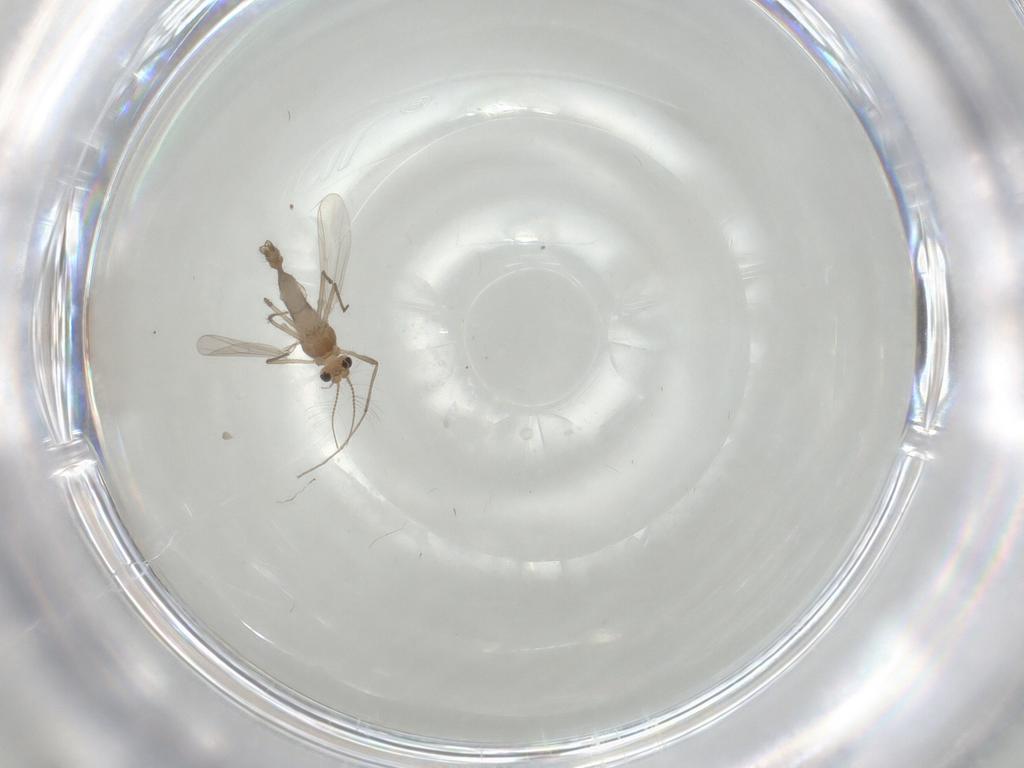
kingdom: Animalia
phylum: Arthropoda
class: Insecta
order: Diptera
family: Chironomidae
